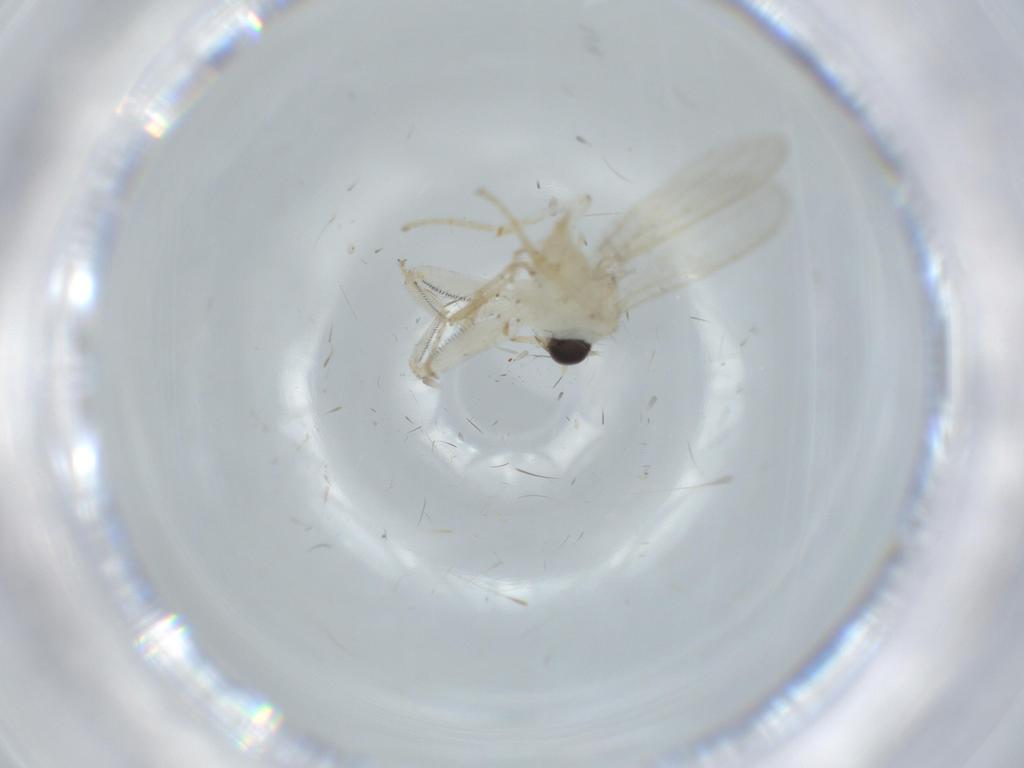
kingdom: Animalia
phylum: Arthropoda
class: Insecta
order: Diptera
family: Hybotidae
